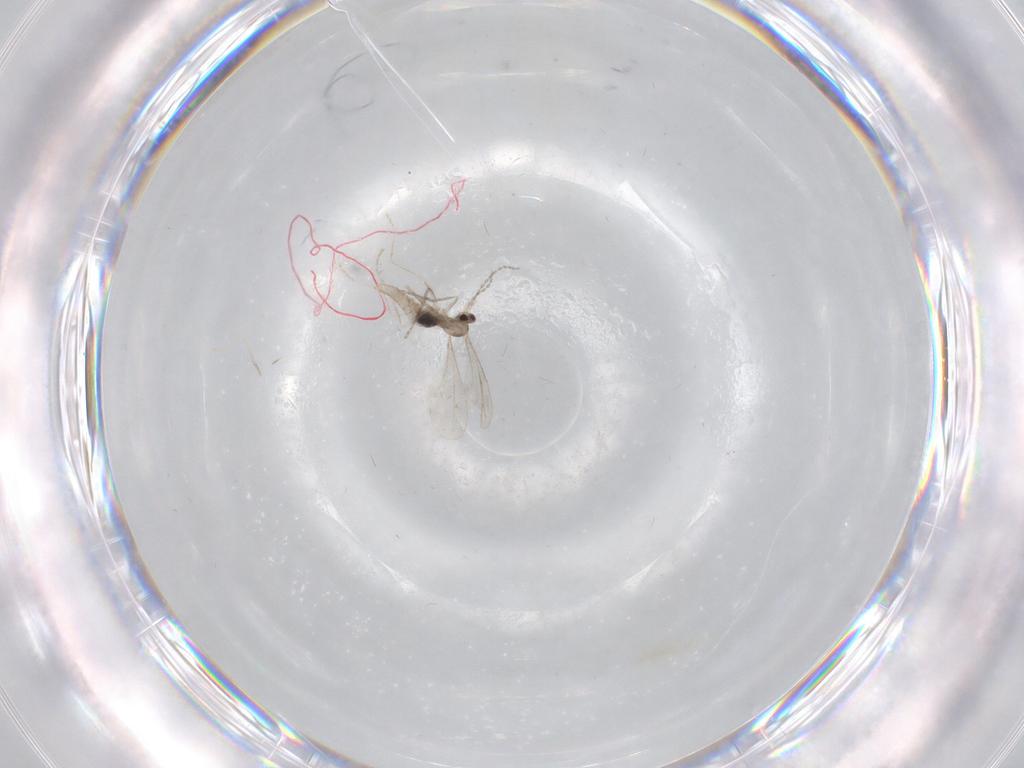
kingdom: Animalia
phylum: Arthropoda
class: Insecta
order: Diptera
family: Cecidomyiidae
